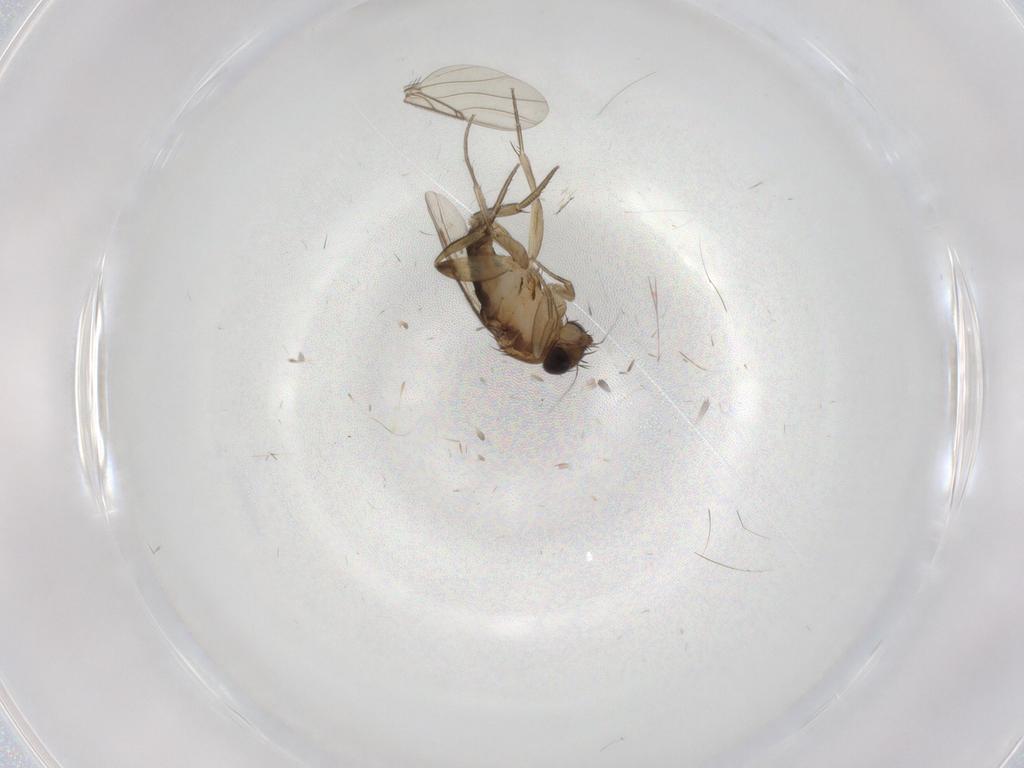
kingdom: Animalia
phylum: Arthropoda
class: Insecta
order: Diptera
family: Phoridae
